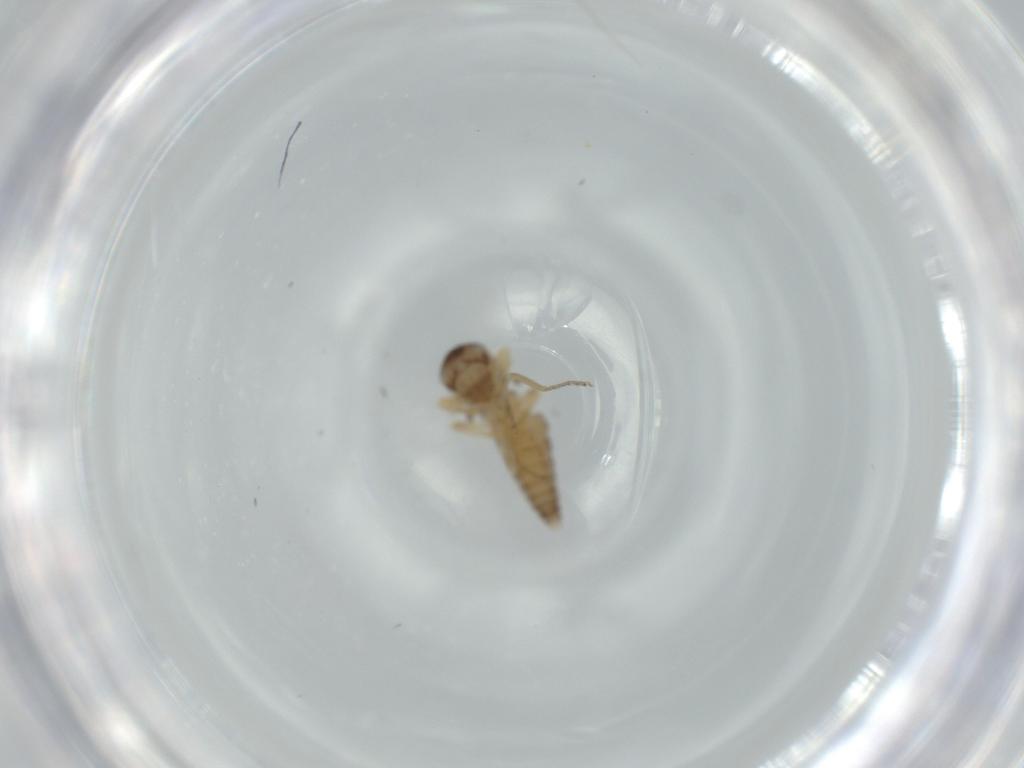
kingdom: Animalia
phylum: Arthropoda
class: Insecta
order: Diptera
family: Ceratopogonidae
